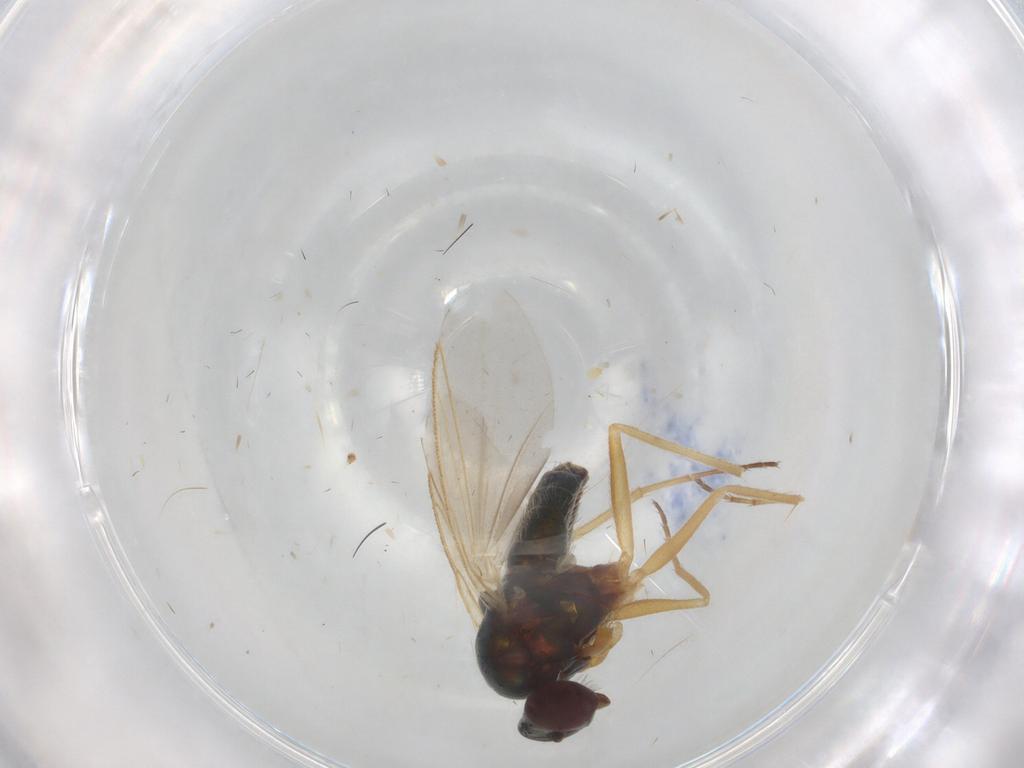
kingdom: Animalia
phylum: Arthropoda
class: Insecta
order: Diptera
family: Dolichopodidae
